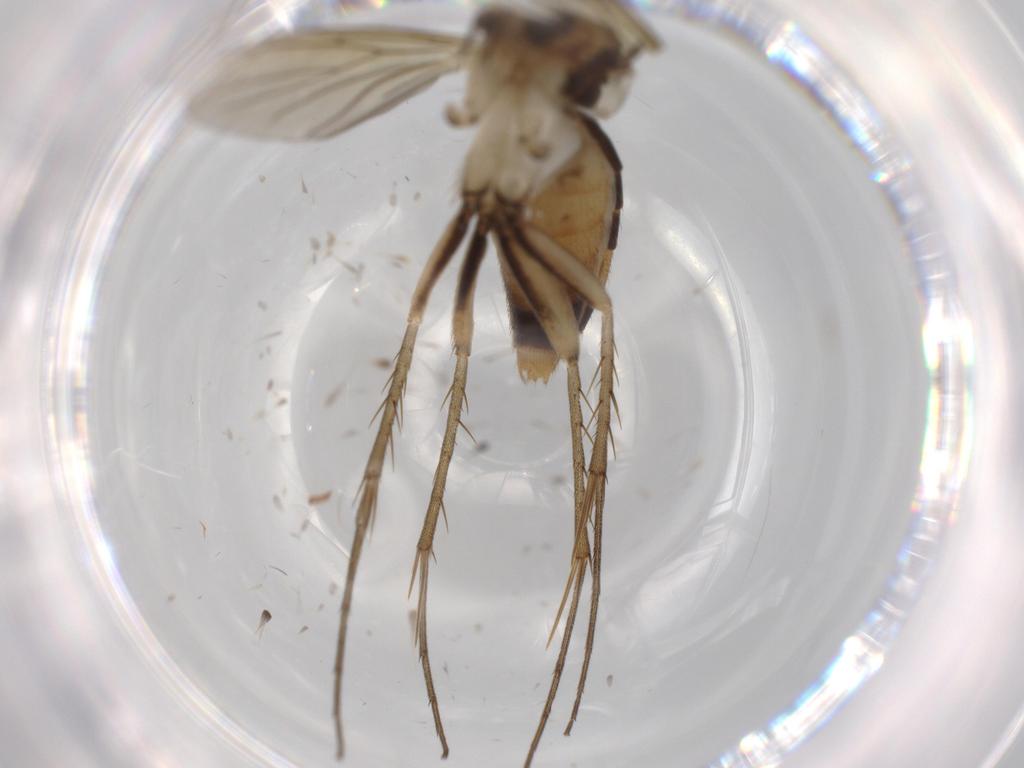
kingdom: Animalia
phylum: Arthropoda
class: Insecta
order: Diptera
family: Mycetophilidae
